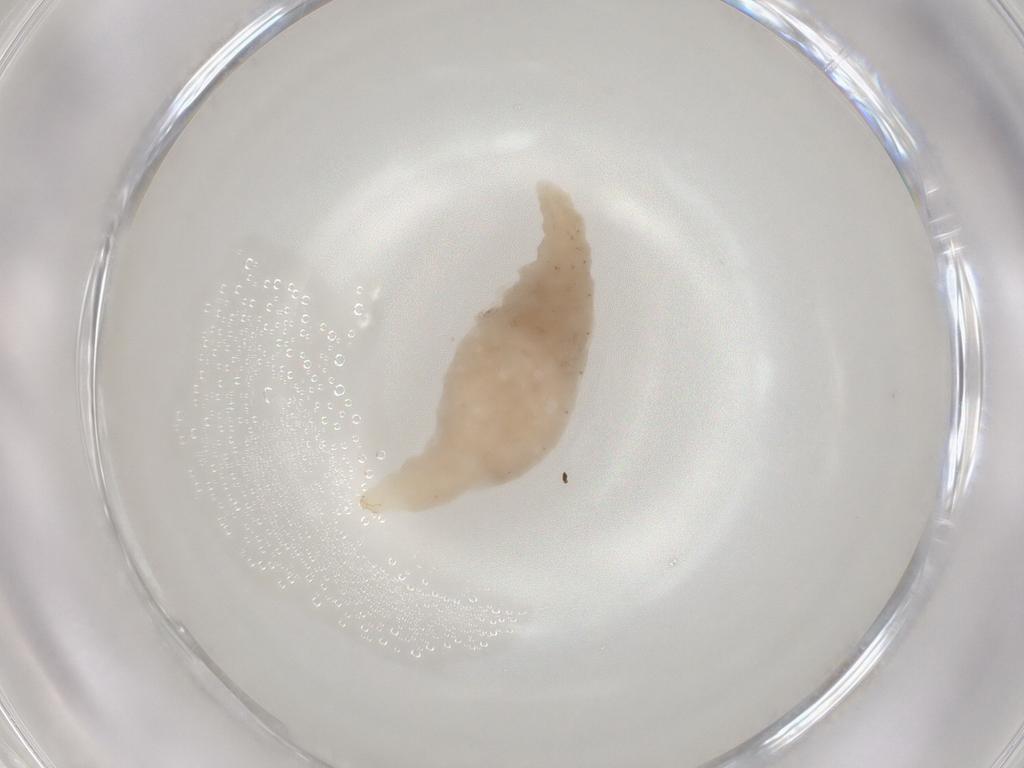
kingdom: Animalia
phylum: Arthropoda
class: Insecta
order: Hymenoptera
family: Braconidae
